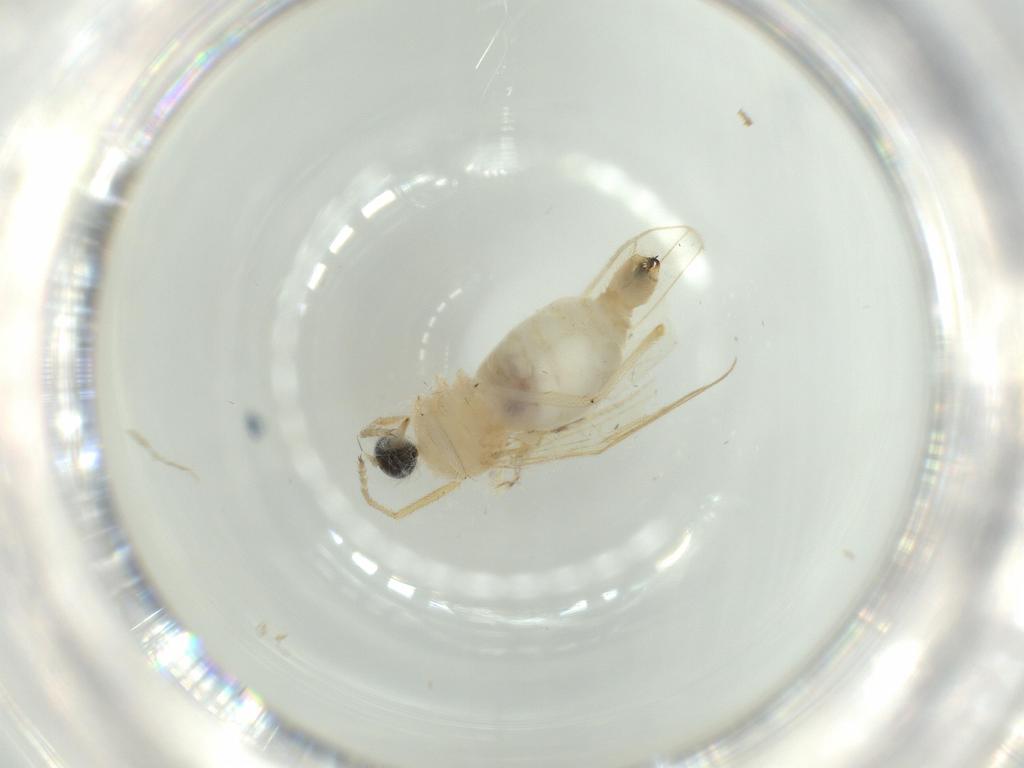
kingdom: Animalia
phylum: Arthropoda
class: Insecta
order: Diptera
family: Hybotidae
